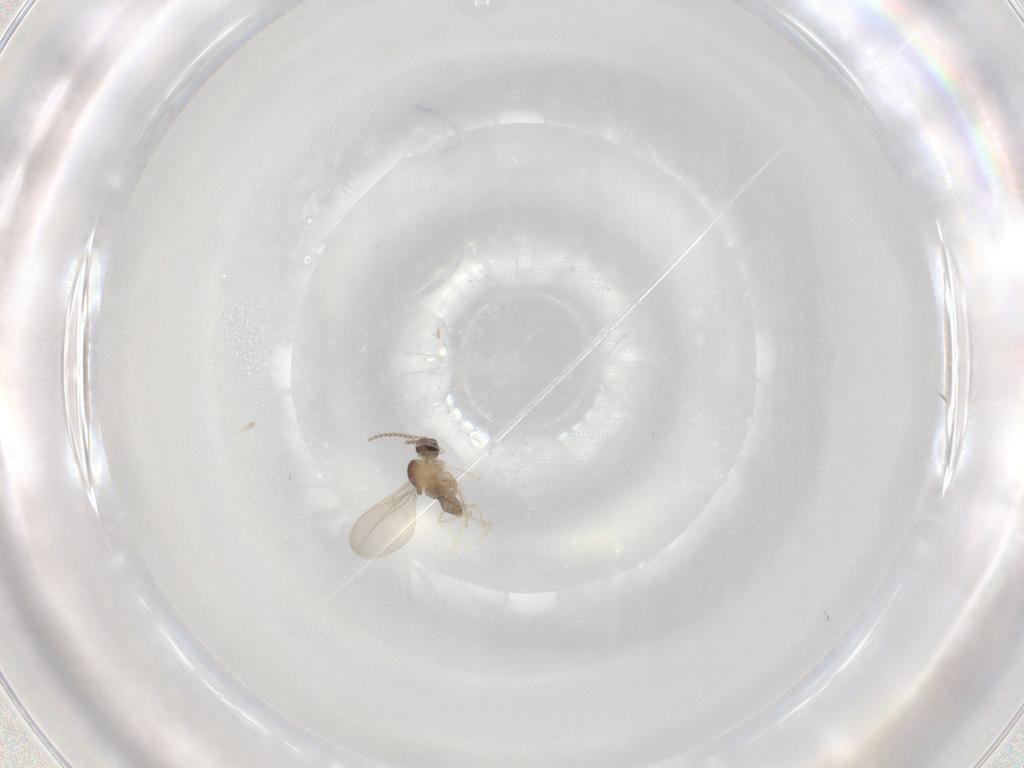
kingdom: Animalia
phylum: Arthropoda
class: Insecta
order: Diptera
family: Cecidomyiidae
